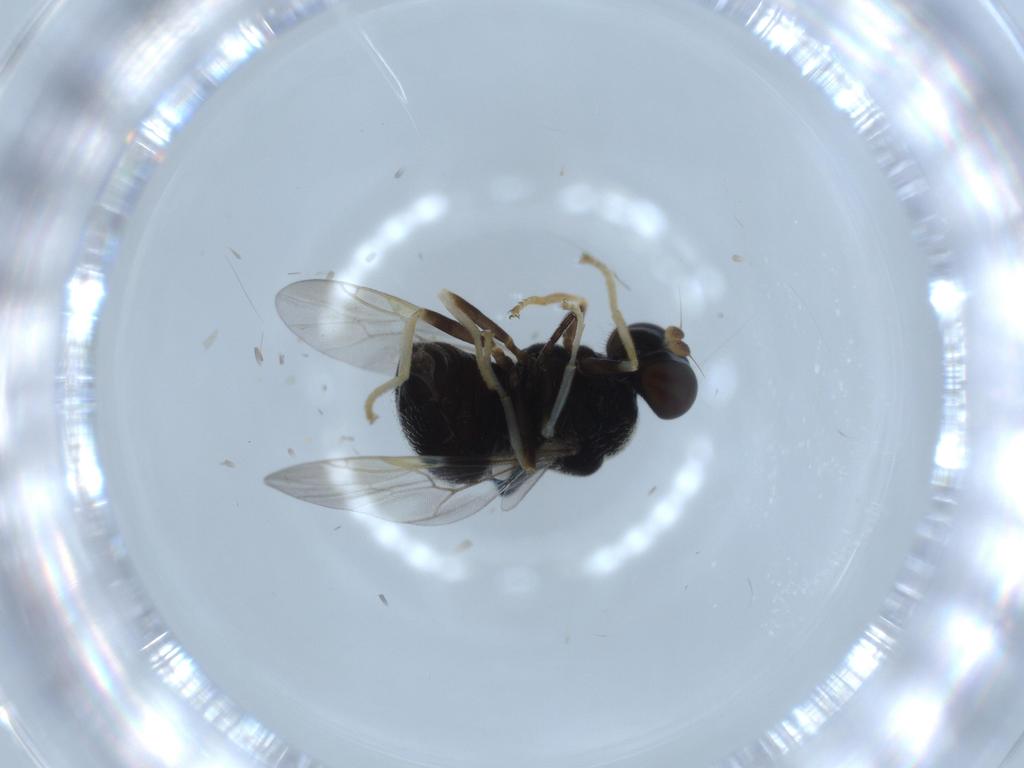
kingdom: Animalia
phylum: Arthropoda
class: Insecta
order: Diptera
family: Stratiomyidae
